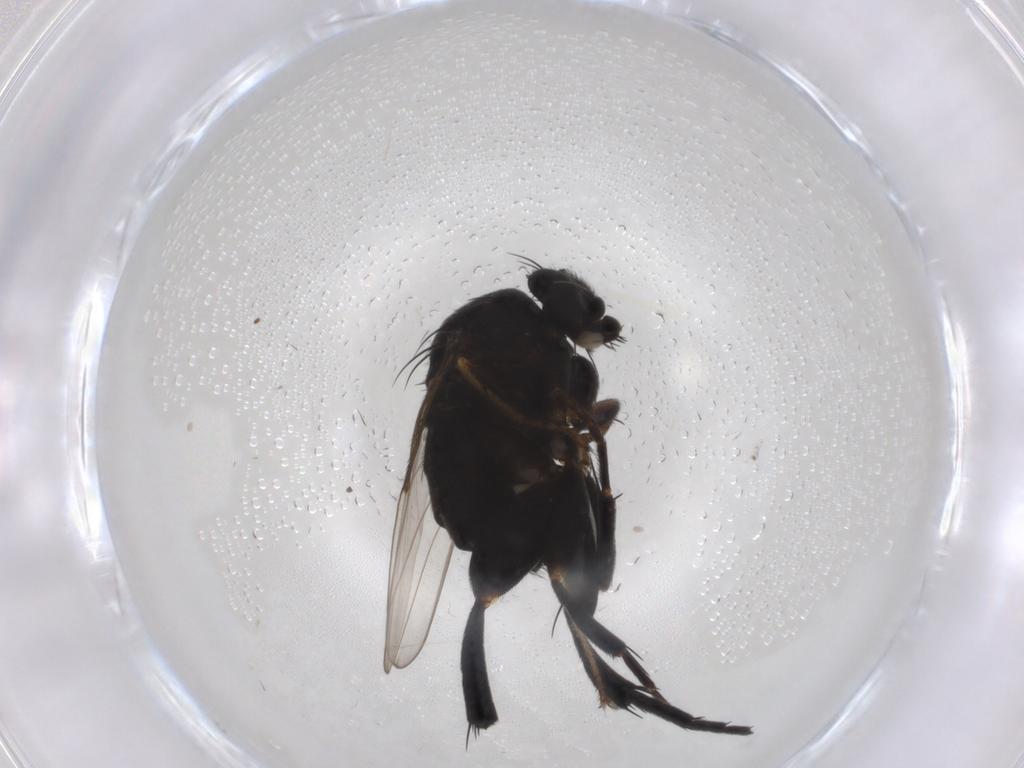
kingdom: Animalia
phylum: Arthropoda
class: Insecta
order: Diptera
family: Sciaridae
